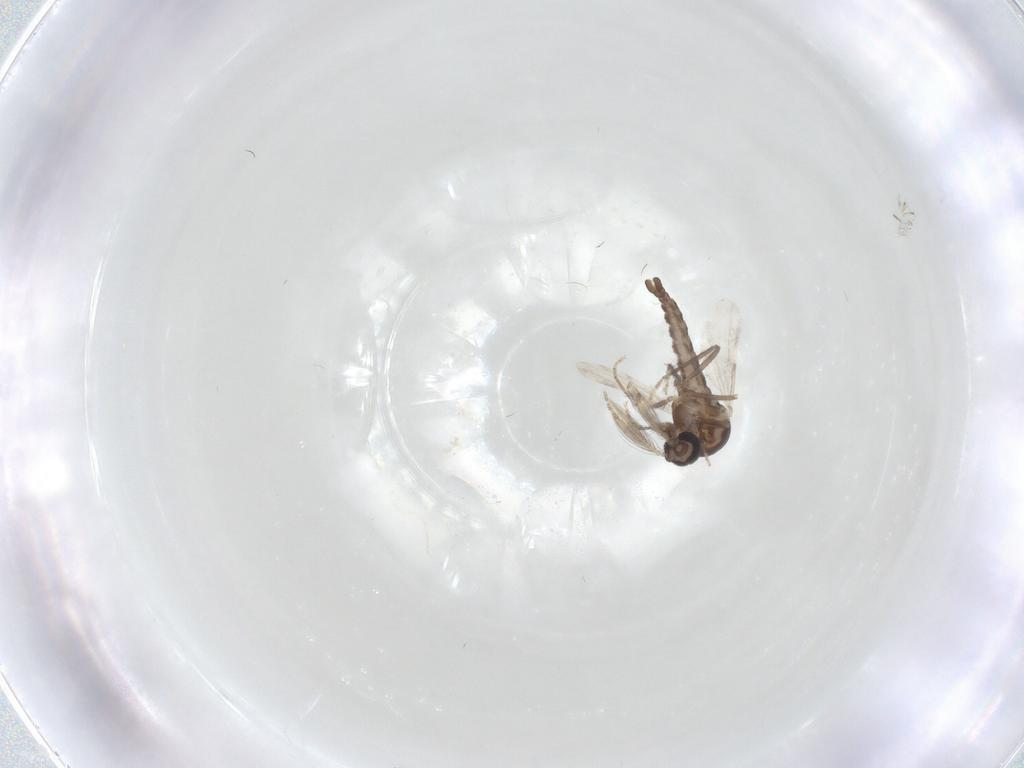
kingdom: Animalia
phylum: Arthropoda
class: Insecta
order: Diptera
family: Ceratopogonidae
